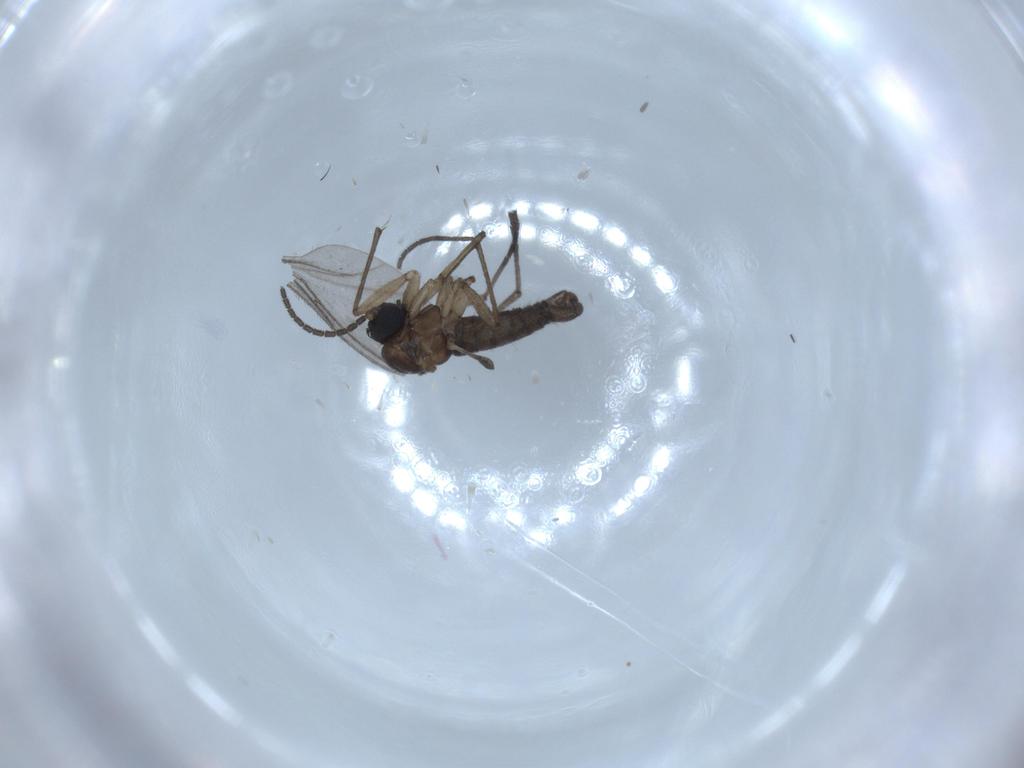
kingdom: Animalia
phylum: Arthropoda
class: Insecta
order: Diptera
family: Sciaridae
